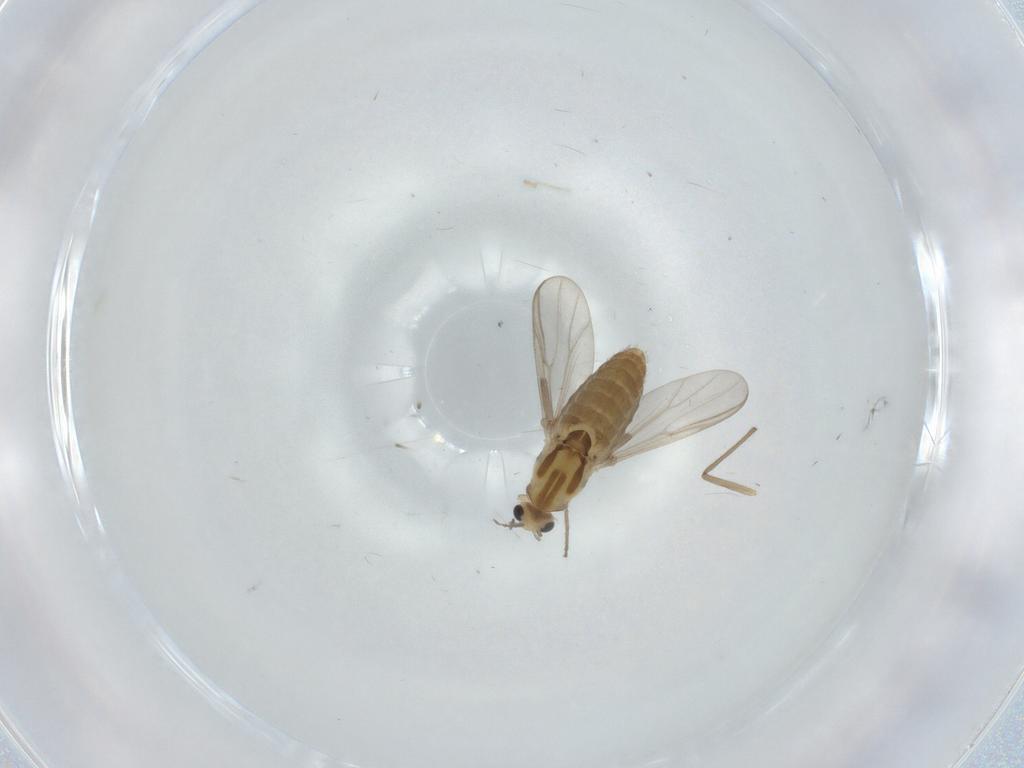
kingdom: Animalia
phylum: Arthropoda
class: Insecta
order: Diptera
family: Chironomidae
